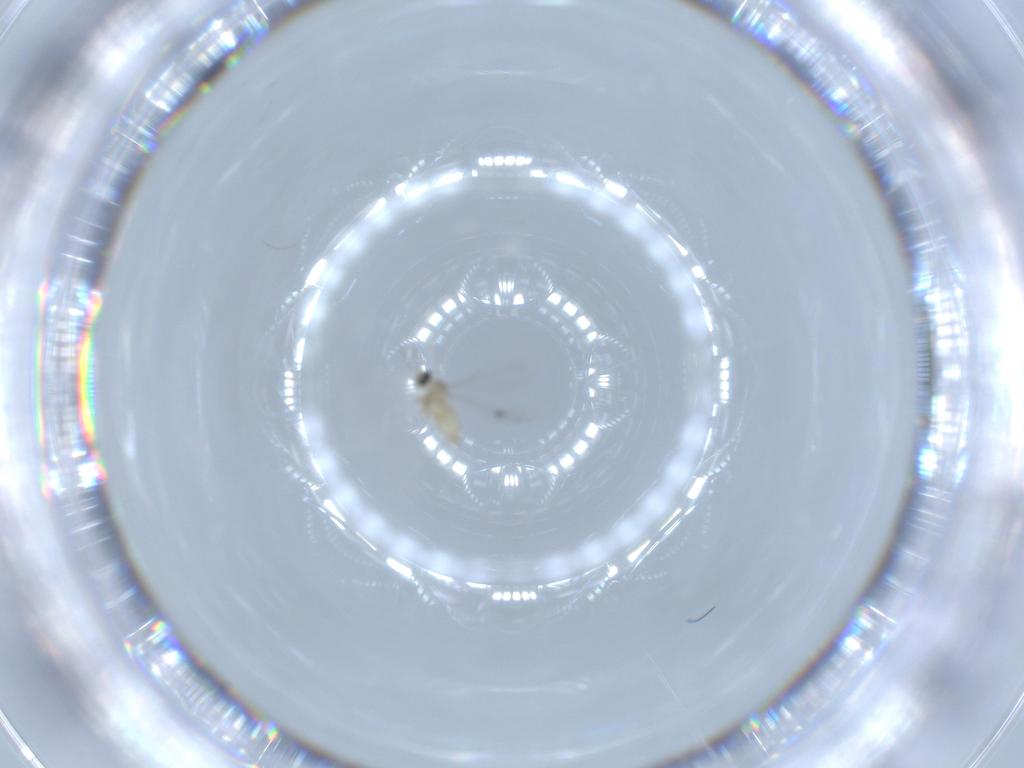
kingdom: Animalia
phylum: Arthropoda
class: Insecta
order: Diptera
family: Cecidomyiidae
